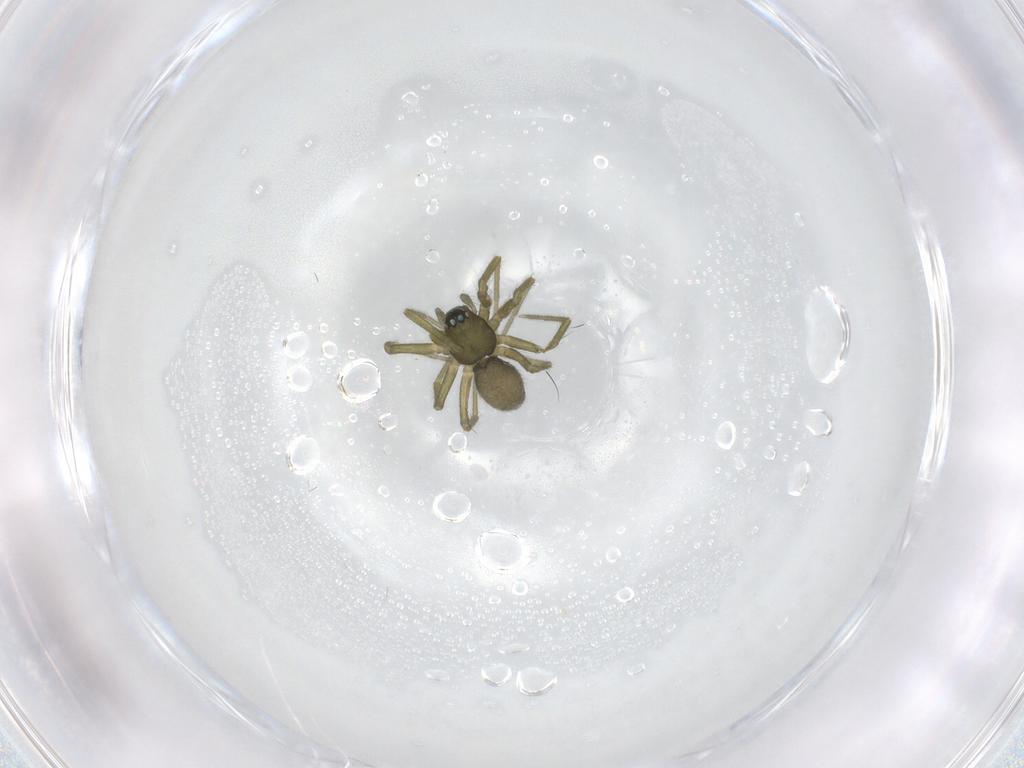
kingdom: Animalia
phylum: Arthropoda
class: Arachnida
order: Araneae
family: Linyphiidae
